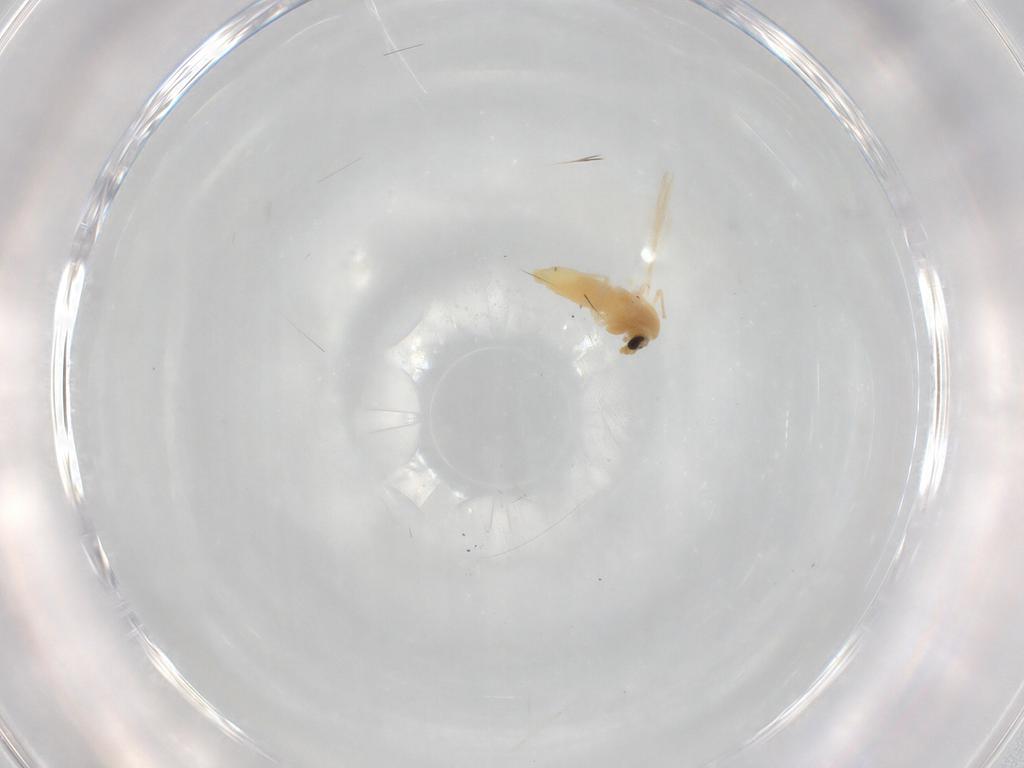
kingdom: Animalia
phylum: Arthropoda
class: Insecta
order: Diptera
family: Chironomidae
